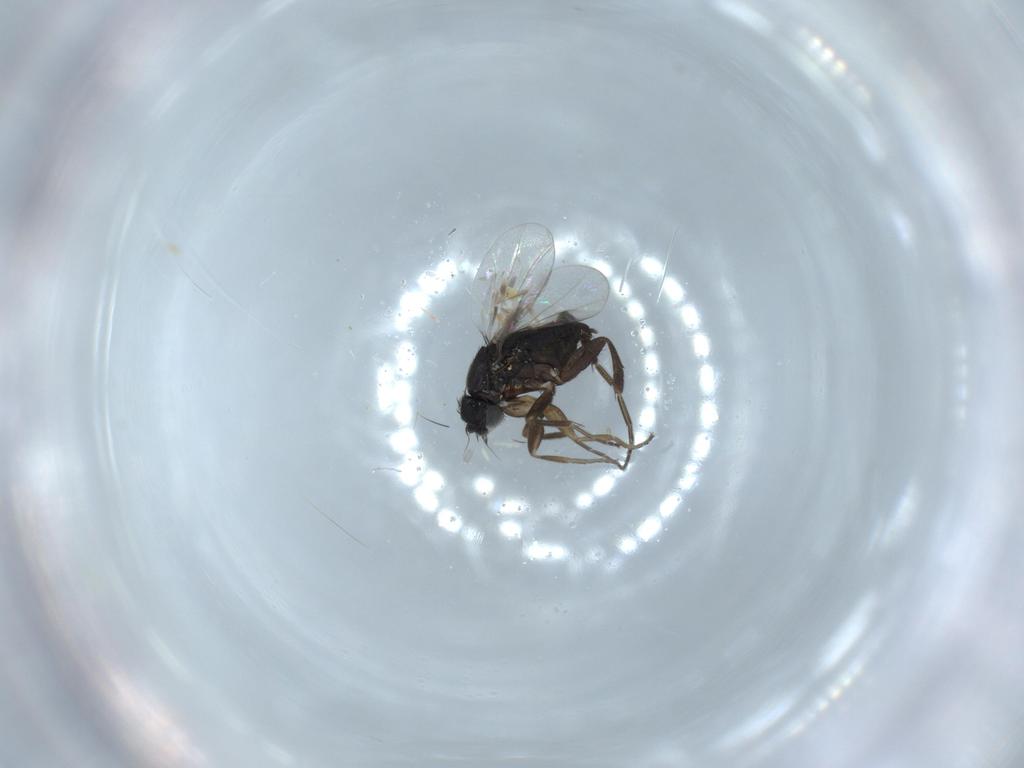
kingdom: Animalia
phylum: Arthropoda
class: Insecta
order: Diptera
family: Phoridae
